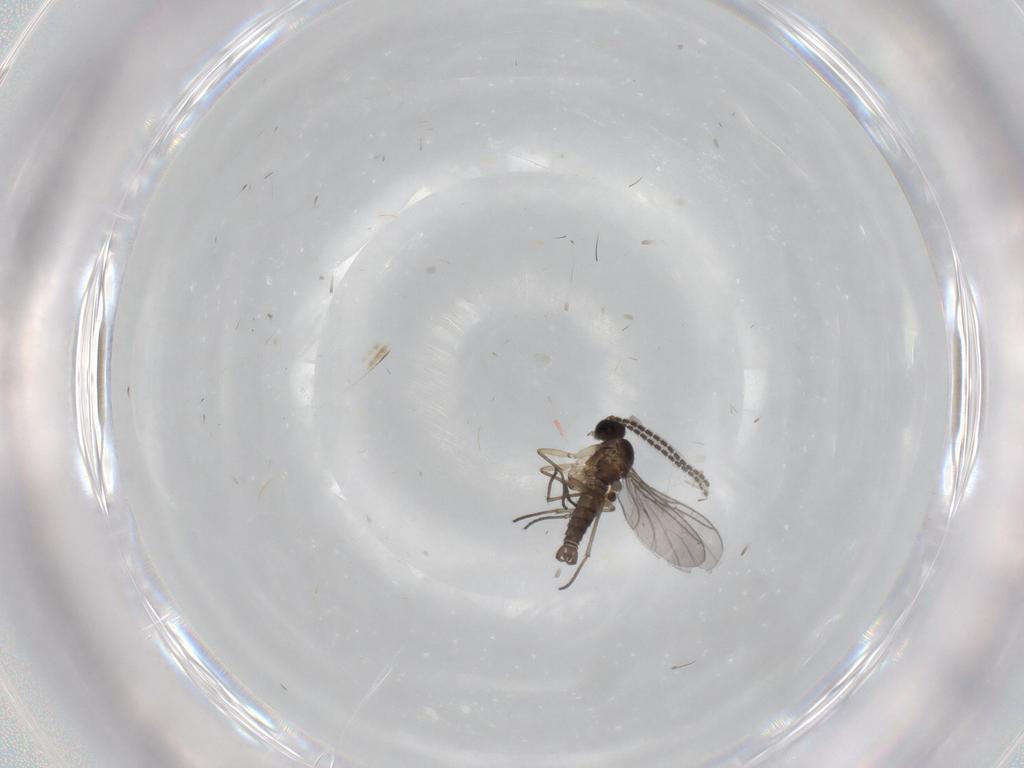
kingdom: Animalia
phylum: Arthropoda
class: Insecta
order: Diptera
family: Sciaridae
